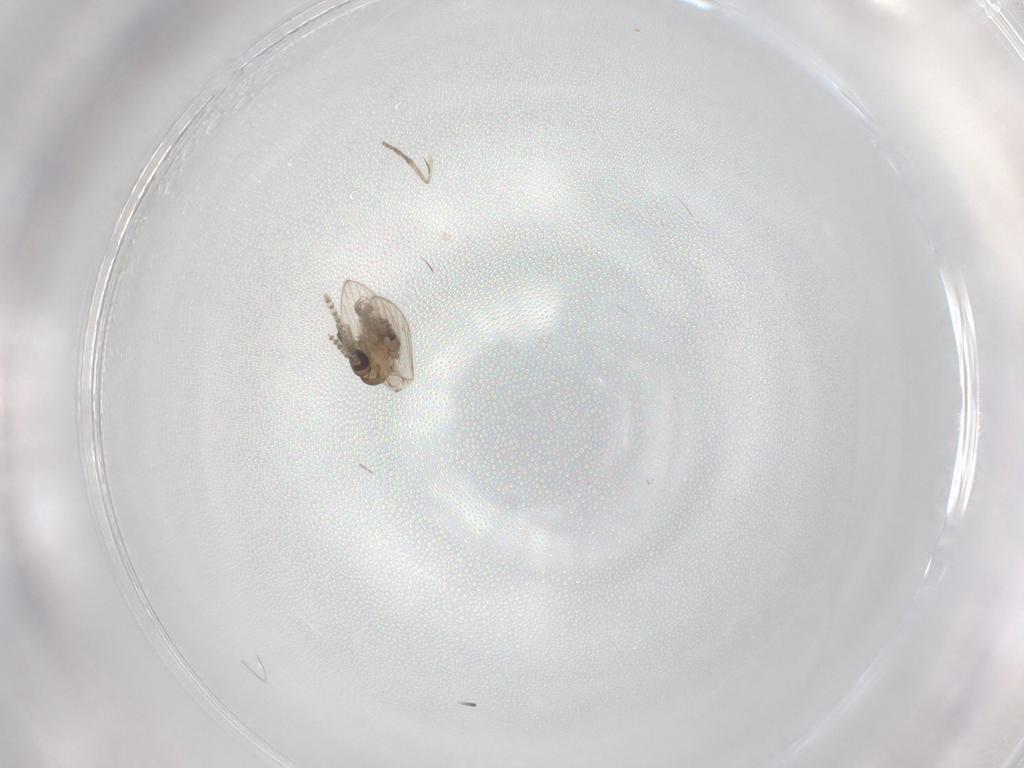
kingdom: Animalia
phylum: Arthropoda
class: Insecta
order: Diptera
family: Psychodidae
